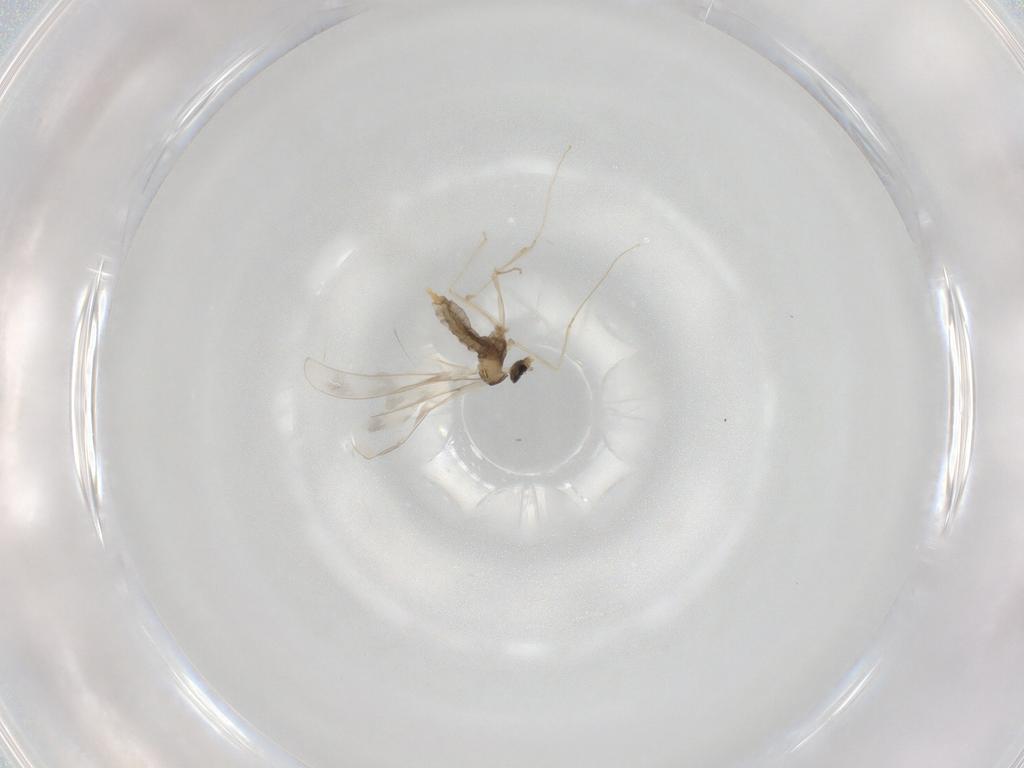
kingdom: Animalia
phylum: Arthropoda
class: Insecta
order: Diptera
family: Cecidomyiidae
